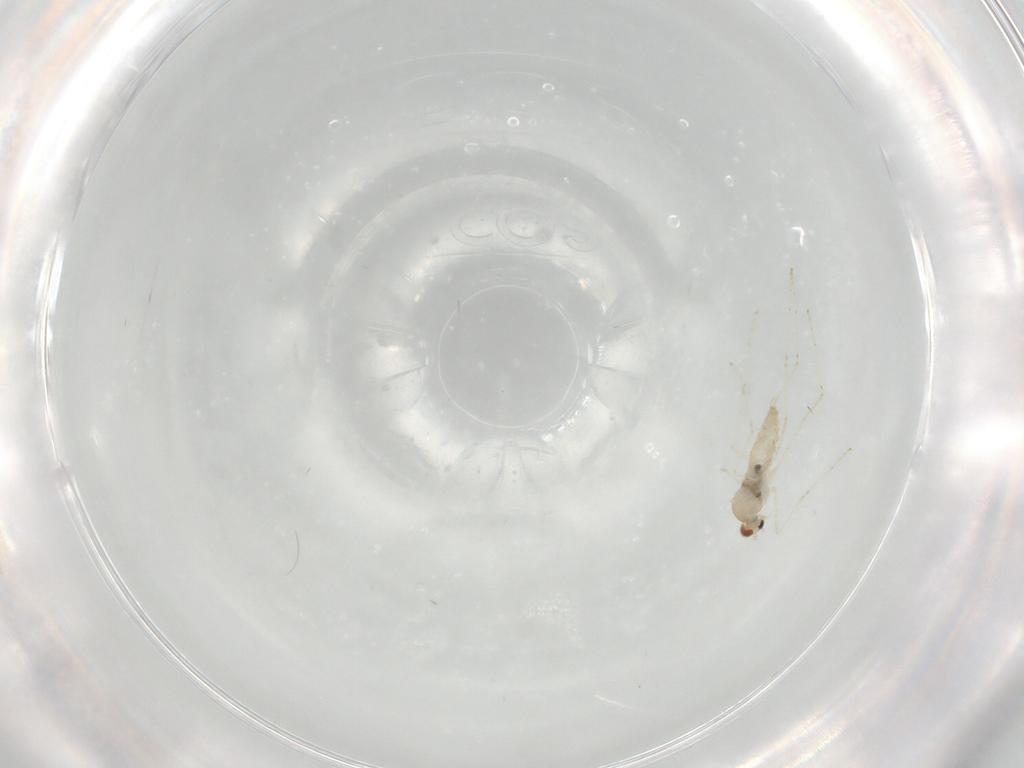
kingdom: Animalia
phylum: Arthropoda
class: Insecta
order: Diptera
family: Cecidomyiidae
